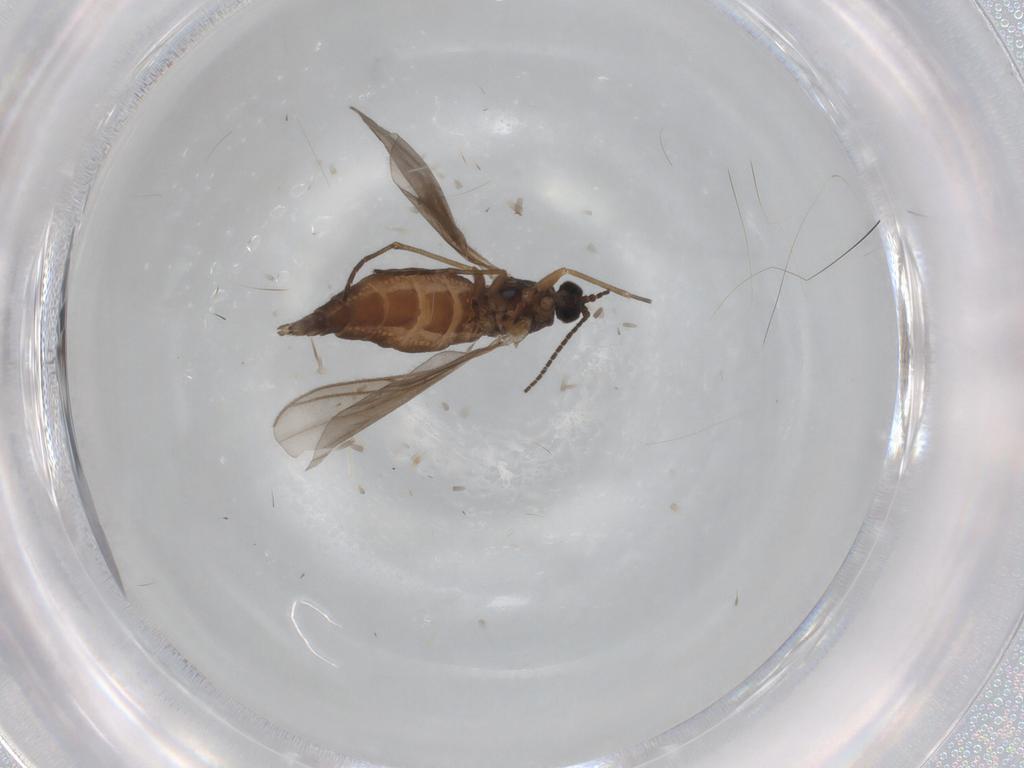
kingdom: Animalia
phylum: Arthropoda
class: Insecta
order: Diptera
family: Sciaridae
